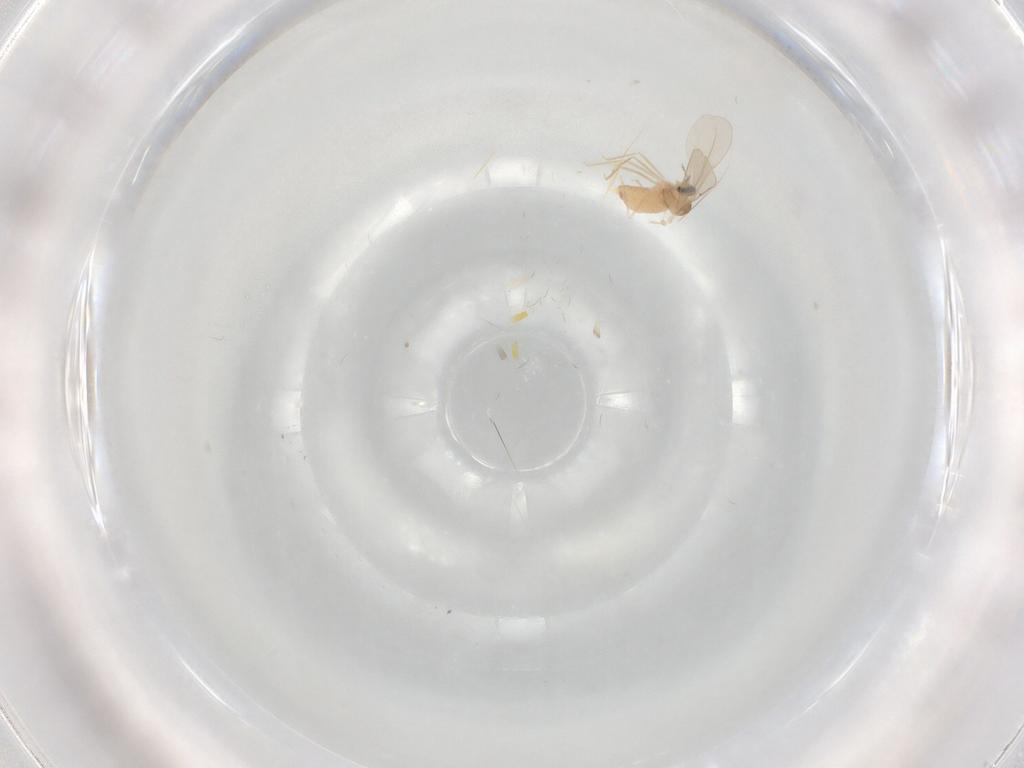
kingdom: Animalia
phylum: Arthropoda
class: Insecta
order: Diptera
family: Cecidomyiidae
